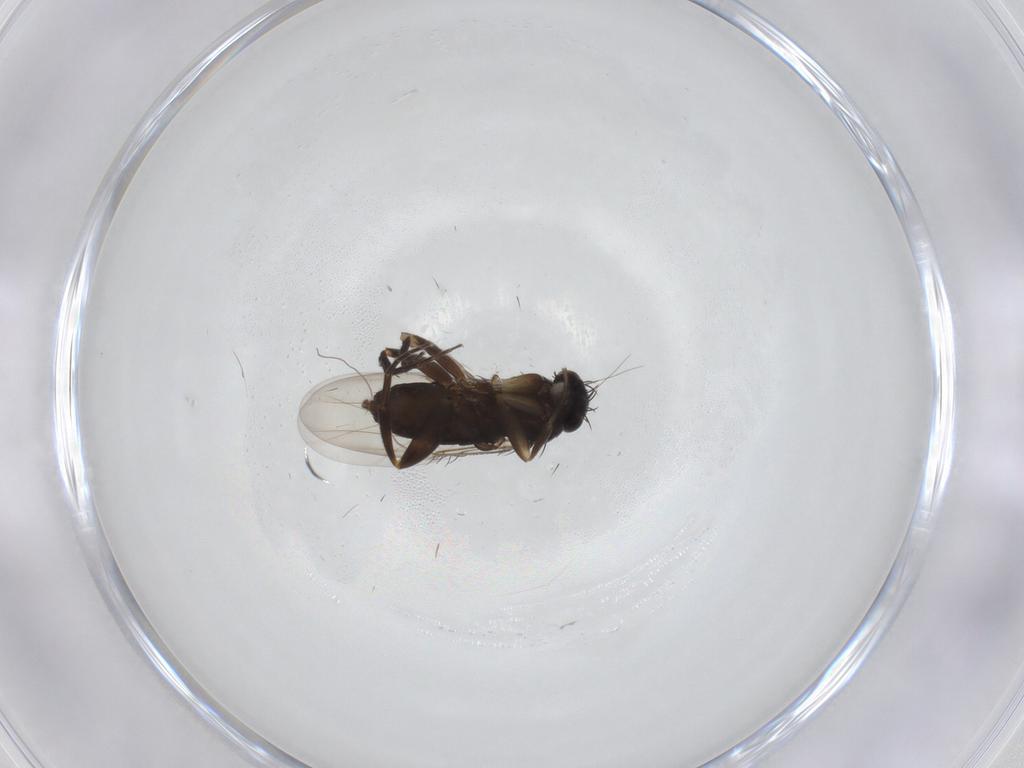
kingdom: Animalia
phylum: Arthropoda
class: Insecta
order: Diptera
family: Phoridae
